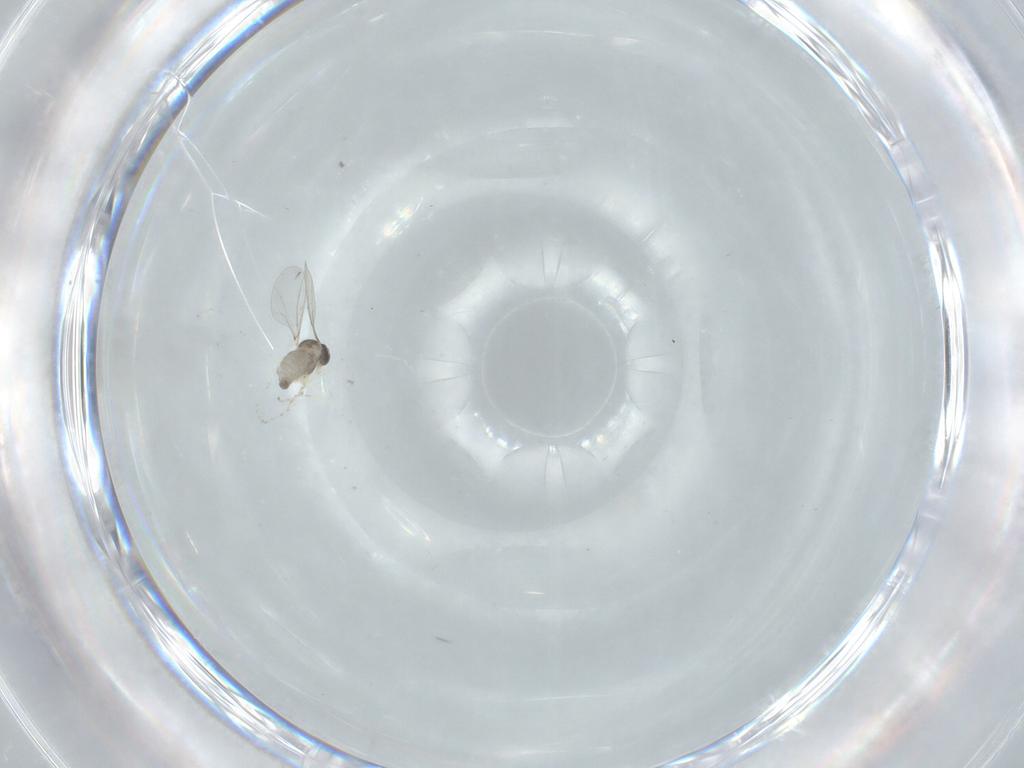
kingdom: Animalia
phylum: Arthropoda
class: Insecta
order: Diptera
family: Cecidomyiidae
